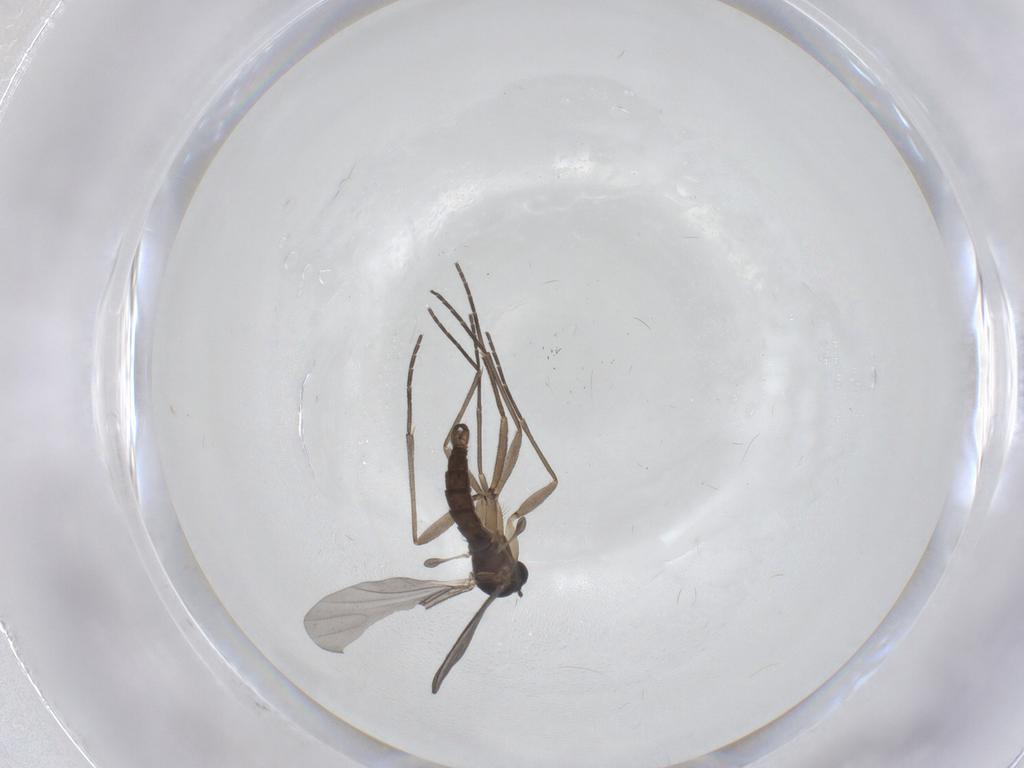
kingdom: Animalia
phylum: Arthropoda
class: Insecta
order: Diptera
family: Sciaridae
